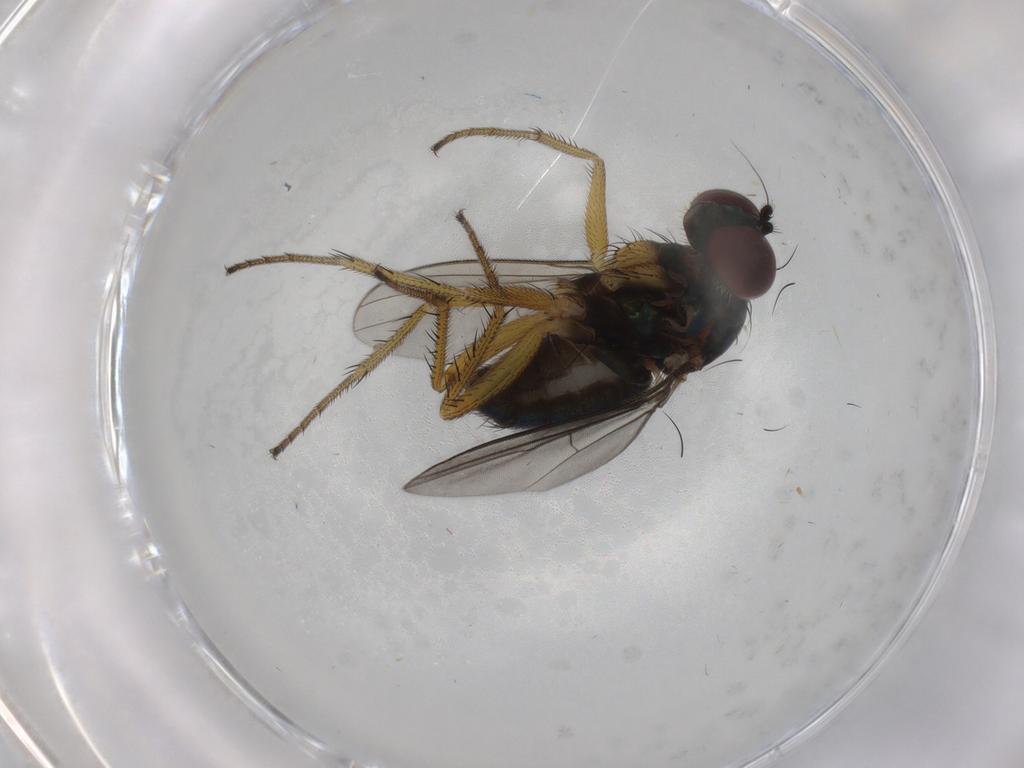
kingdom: Animalia
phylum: Arthropoda
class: Insecta
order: Diptera
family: Dolichopodidae
